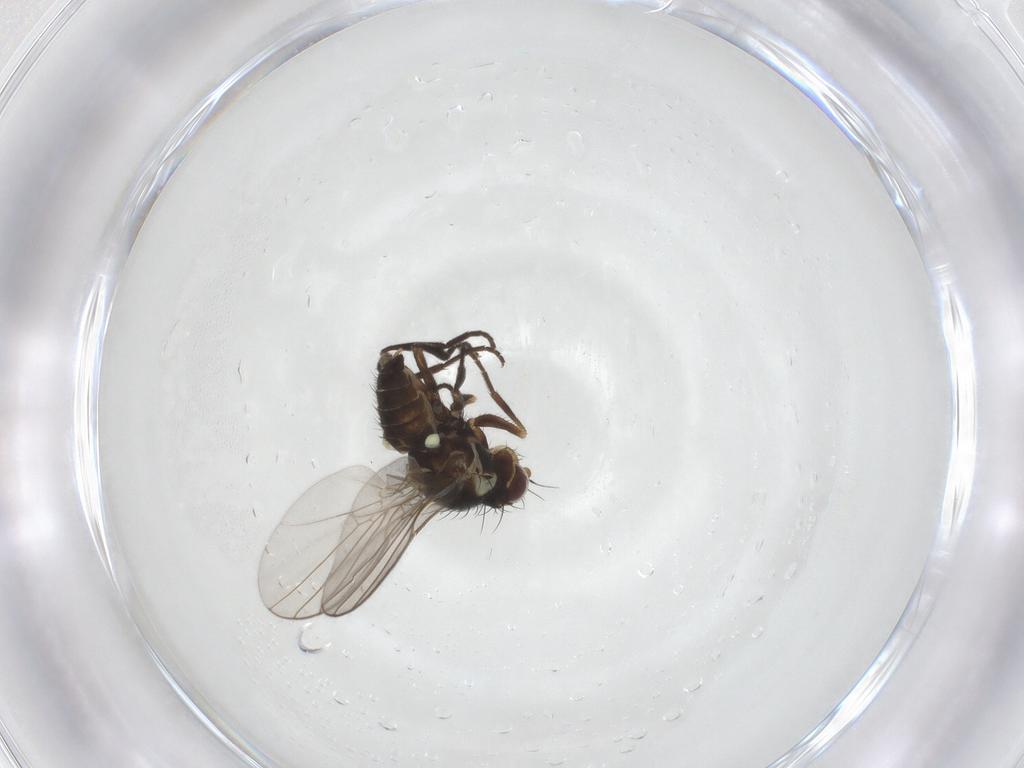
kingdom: Animalia
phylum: Arthropoda
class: Insecta
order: Diptera
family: Agromyzidae
